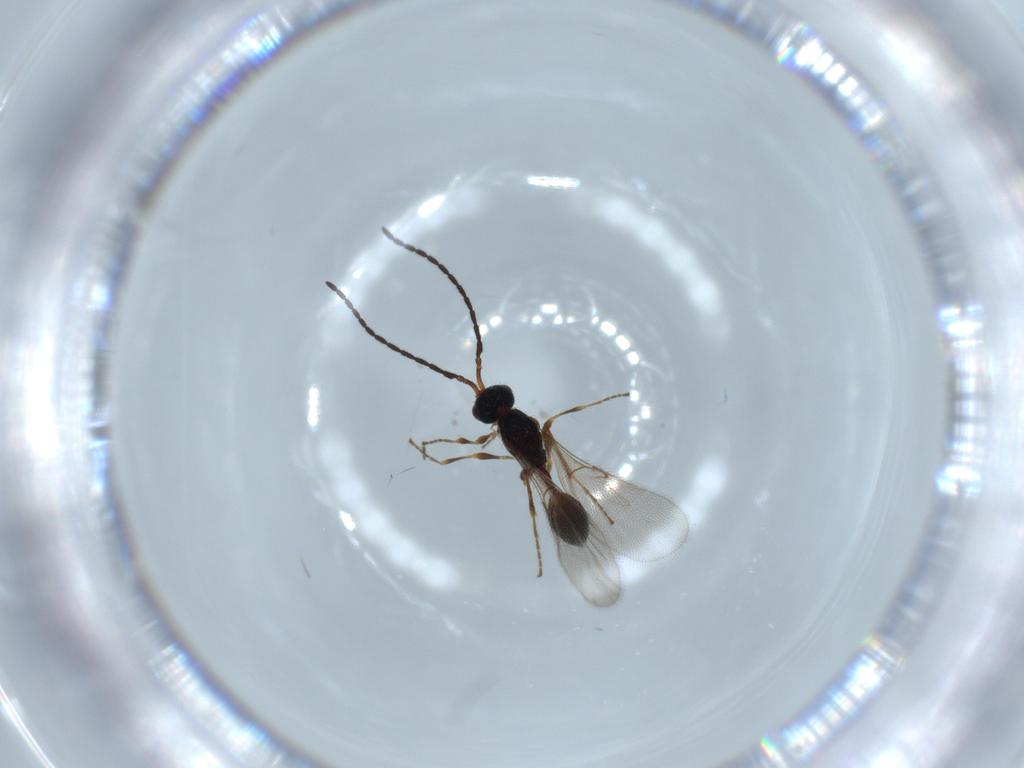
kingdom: Animalia
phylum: Arthropoda
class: Insecta
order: Hymenoptera
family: Diapriidae
